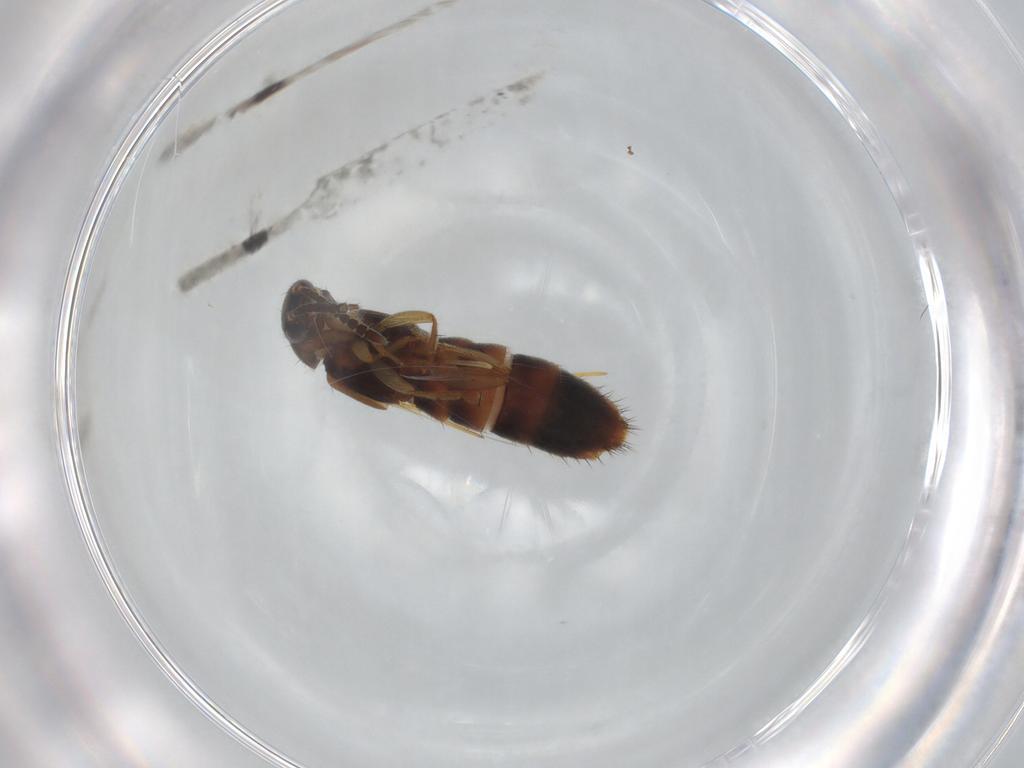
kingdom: Animalia
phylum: Arthropoda
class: Insecta
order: Coleoptera
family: Staphylinidae
